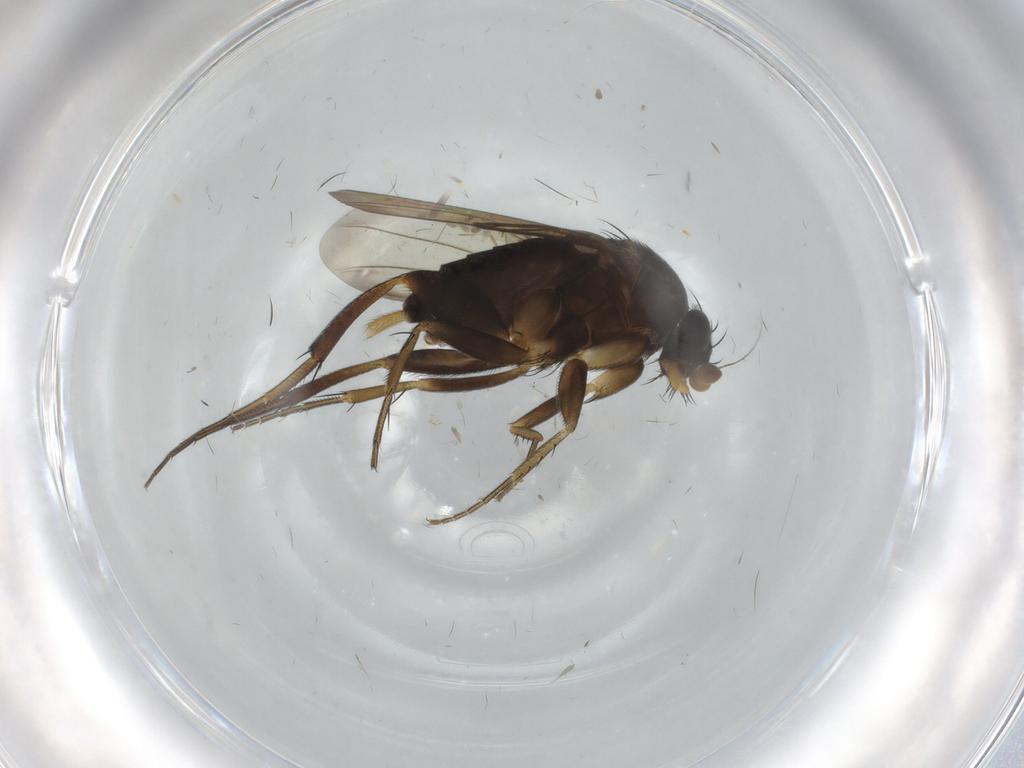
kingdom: Animalia
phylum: Arthropoda
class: Insecta
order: Diptera
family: Phoridae
